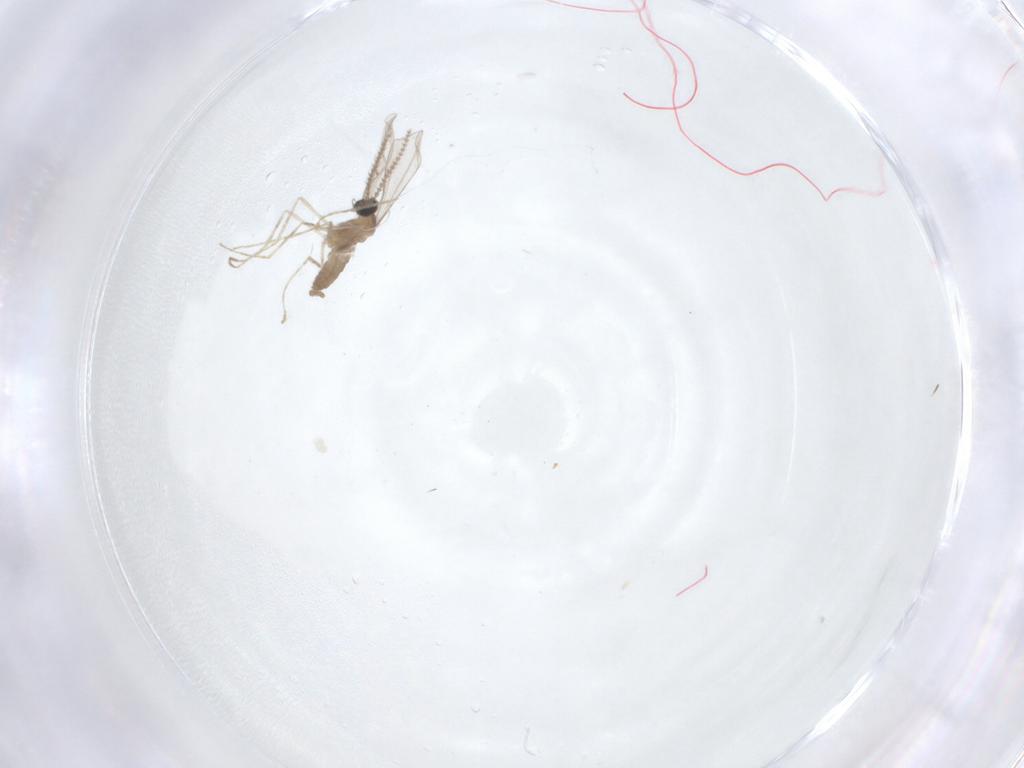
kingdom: Animalia
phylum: Arthropoda
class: Insecta
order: Diptera
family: Cecidomyiidae
